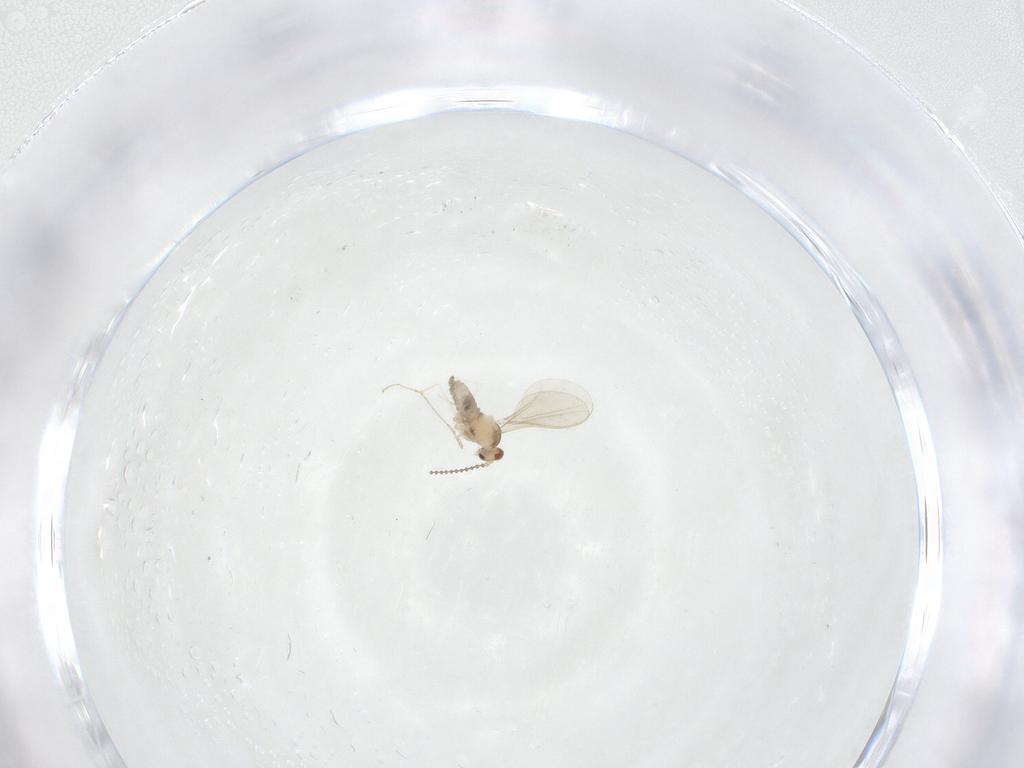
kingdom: Animalia
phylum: Arthropoda
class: Insecta
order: Diptera
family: Cecidomyiidae
